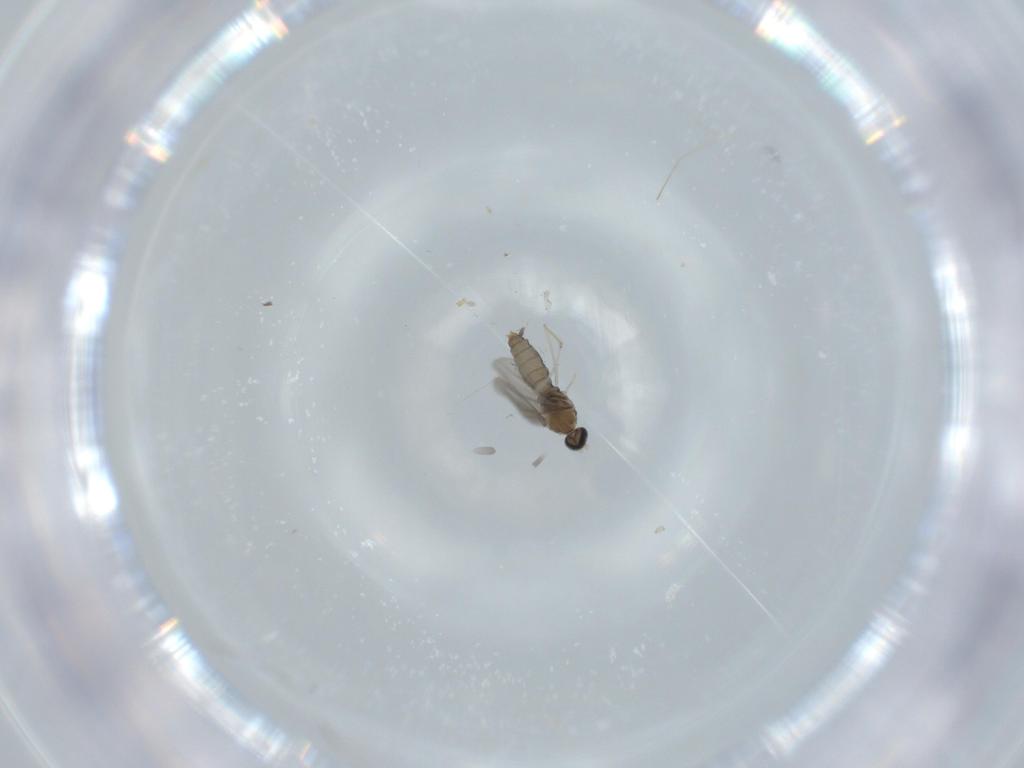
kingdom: Animalia
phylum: Arthropoda
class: Insecta
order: Diptera
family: Cecidomyiidae
